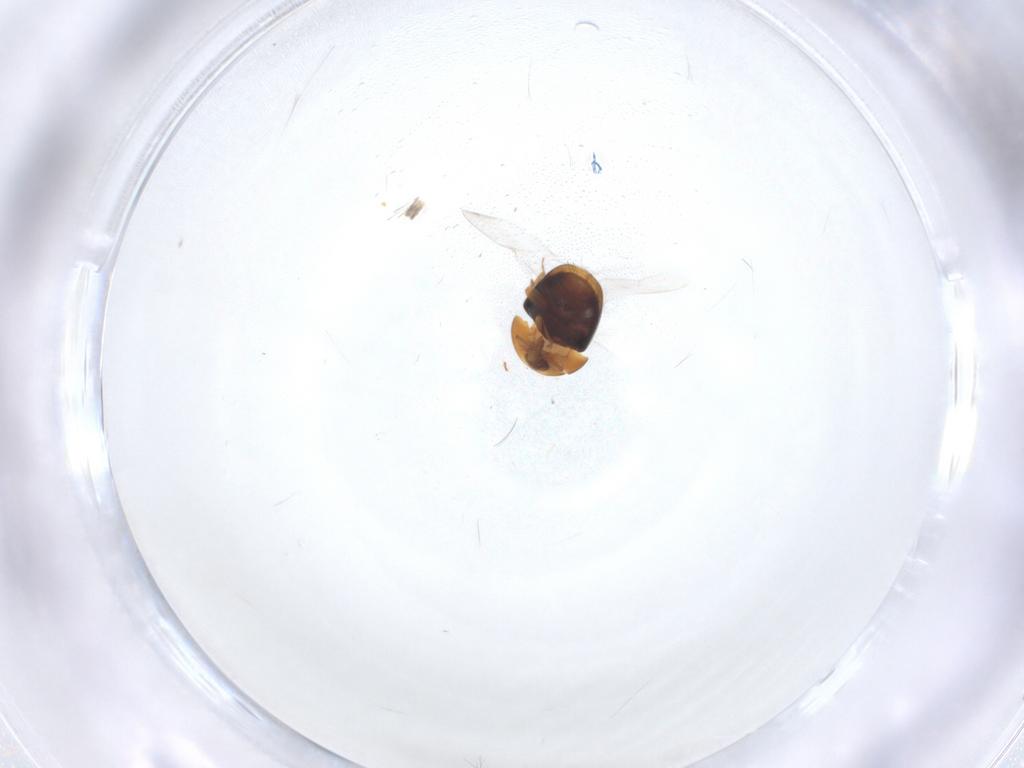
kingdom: Animalia
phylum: Arthropoda
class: Insecta
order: Coleoptera
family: Corylophidae
